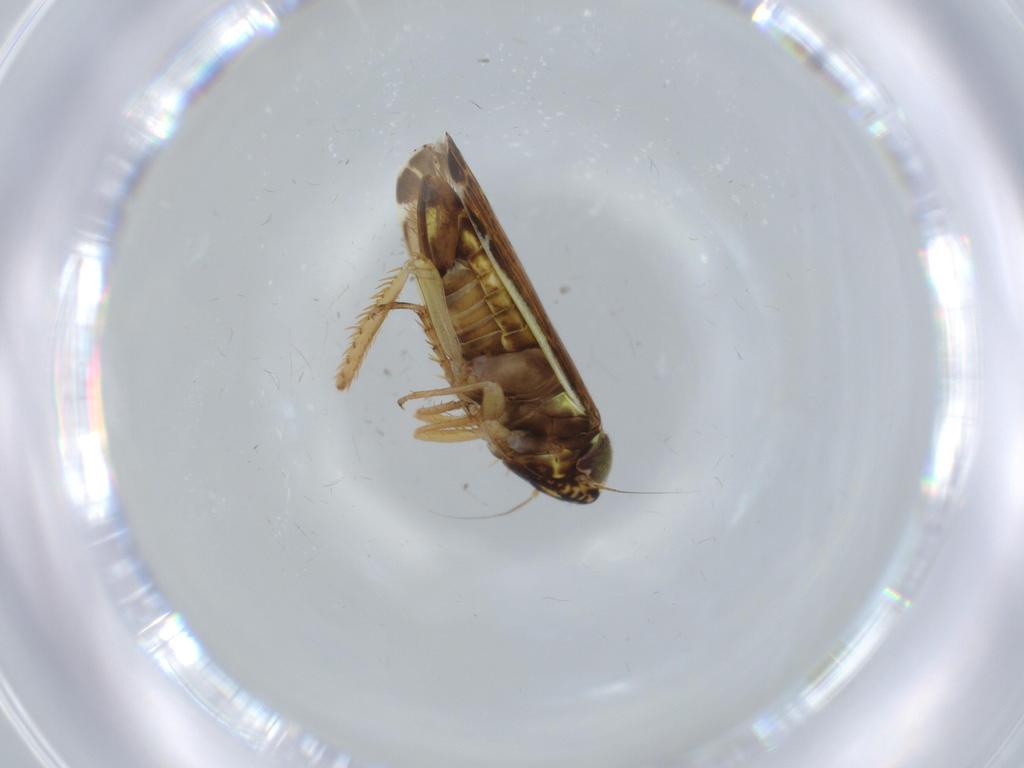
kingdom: Animalia
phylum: Arthropoda
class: Insecta
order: Hemiptera
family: Cicadellidae
